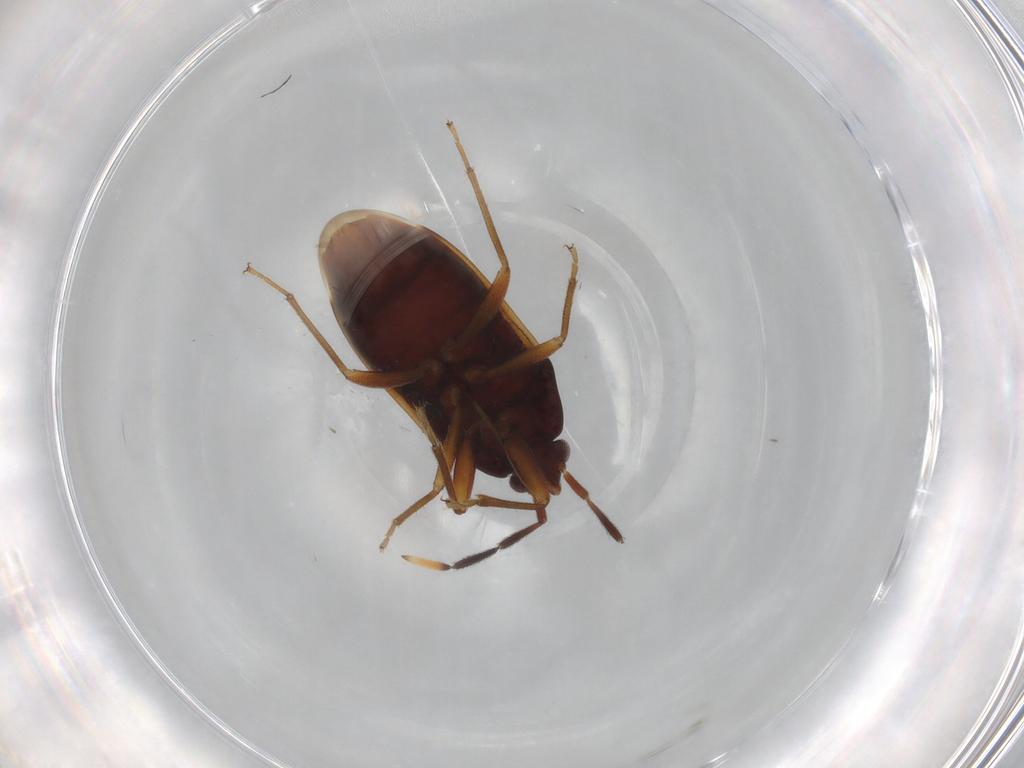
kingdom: Animalia
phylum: Arthropoda
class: Insecta
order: Hemiptera
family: Rhyparochromidae
